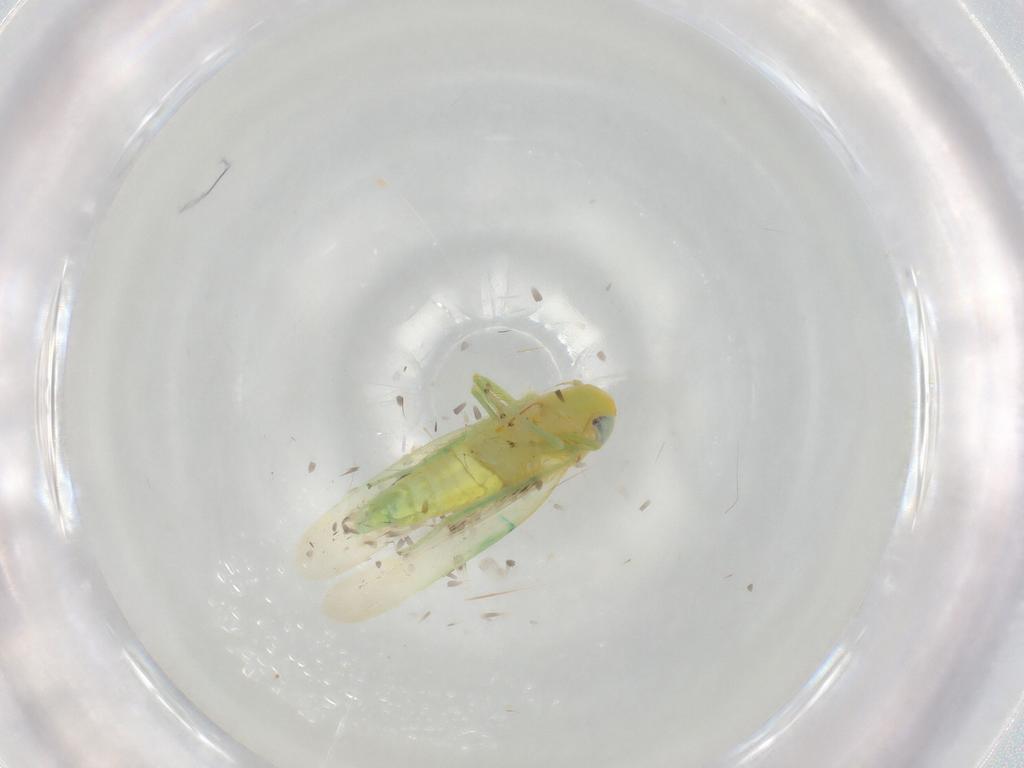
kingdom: Animalia
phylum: Arthropoda
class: Insecta
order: Hemiptera
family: Cicadellidae
